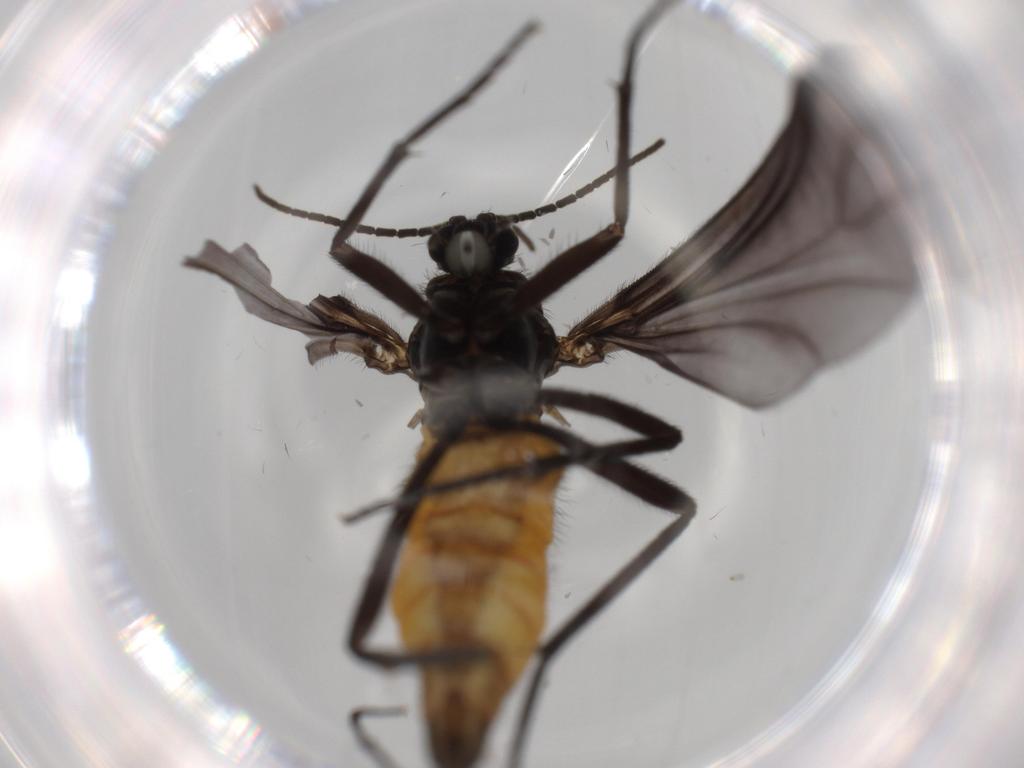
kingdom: Animalia
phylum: Arthropoda
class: Insecta
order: Diptera
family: Cecidomyiidae
